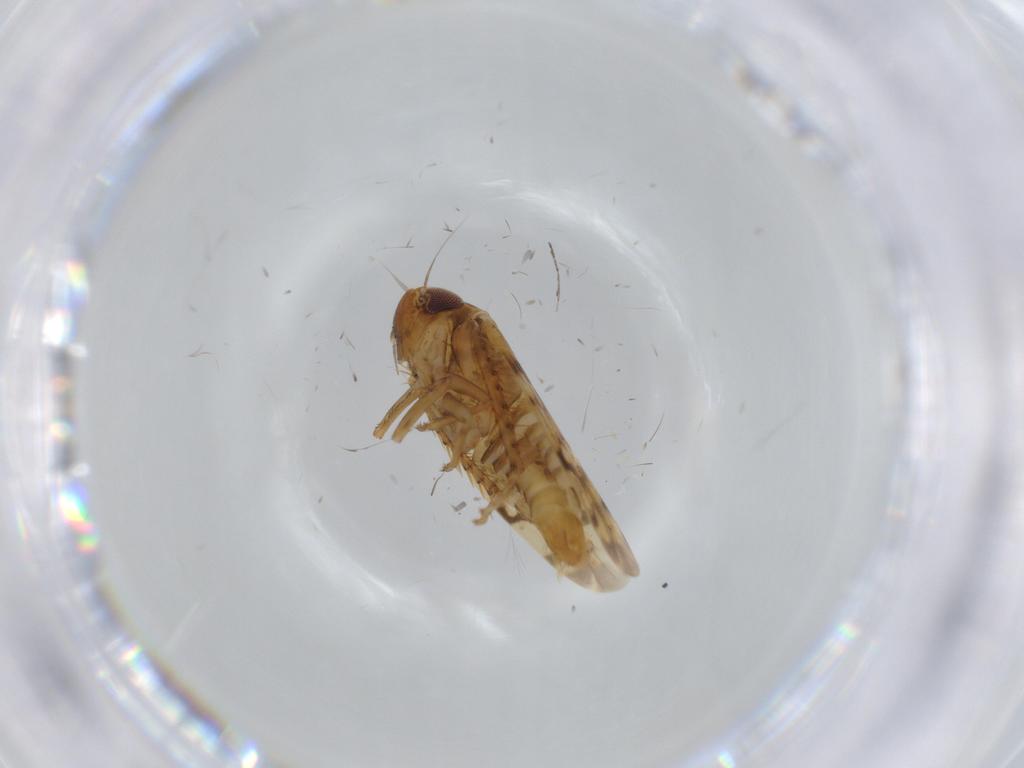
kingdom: Animalia
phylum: Arthropoda
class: Insecta
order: Hemiptera
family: Cicadellidae
